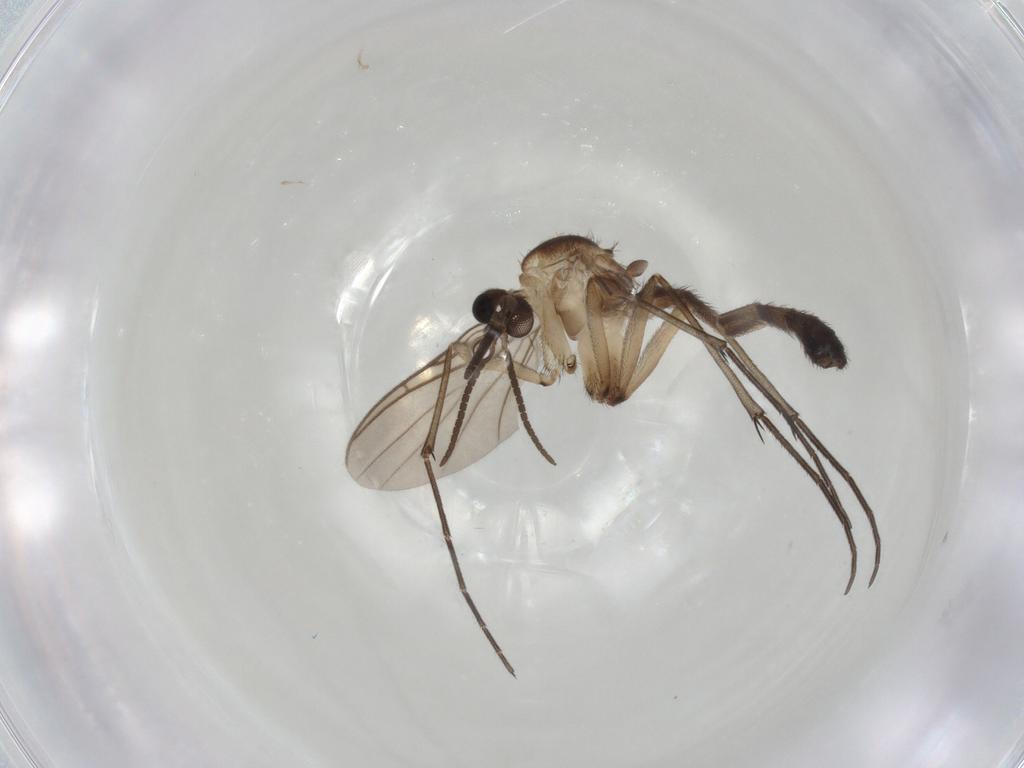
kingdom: Animalia
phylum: Arthropoda
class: Insecta
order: Diptera
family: Keroplatidae
